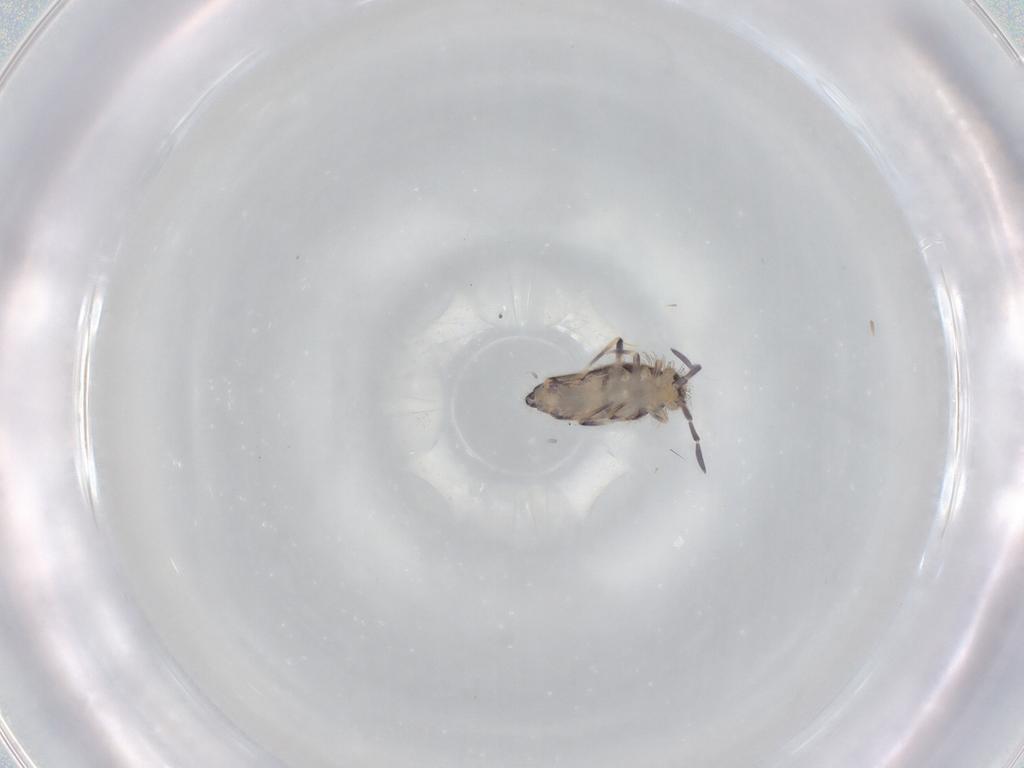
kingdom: Animalia
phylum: Arthropoda
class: Collembola
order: Entomobryomorpha
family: Entomobryidae
